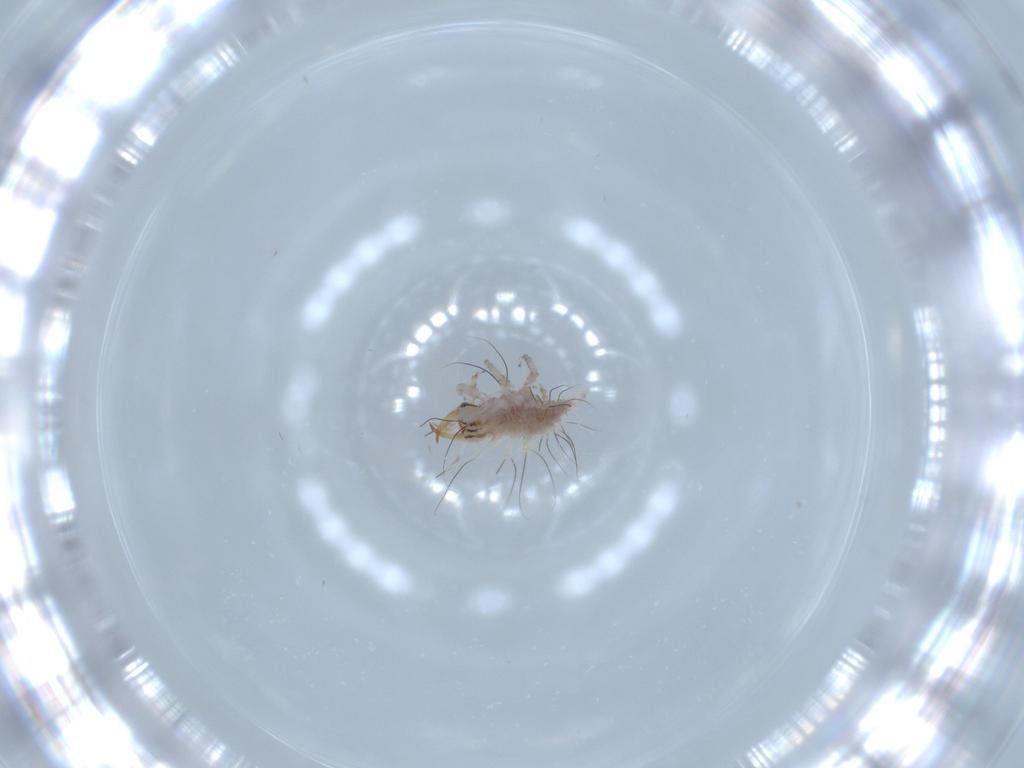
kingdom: Animalia
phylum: Arthropoda
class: Insecta
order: Neuroptera
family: Chrysopidae
